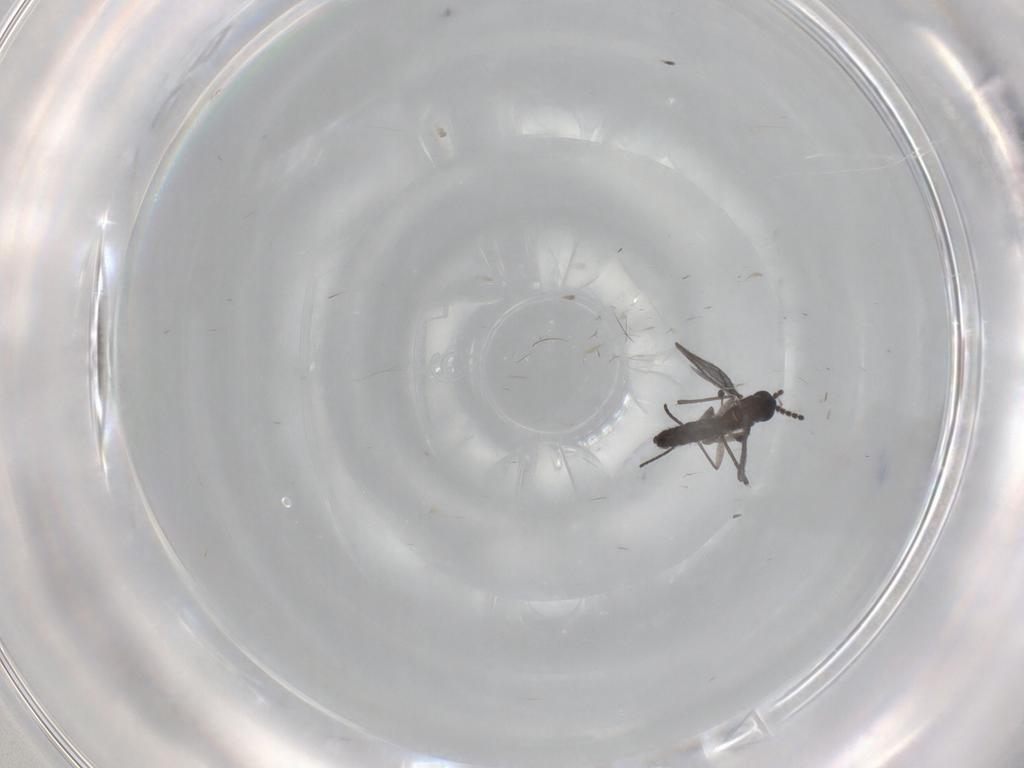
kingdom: Animalia
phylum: Arthropoda
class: Insecta
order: Diptera
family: Sciaridae
